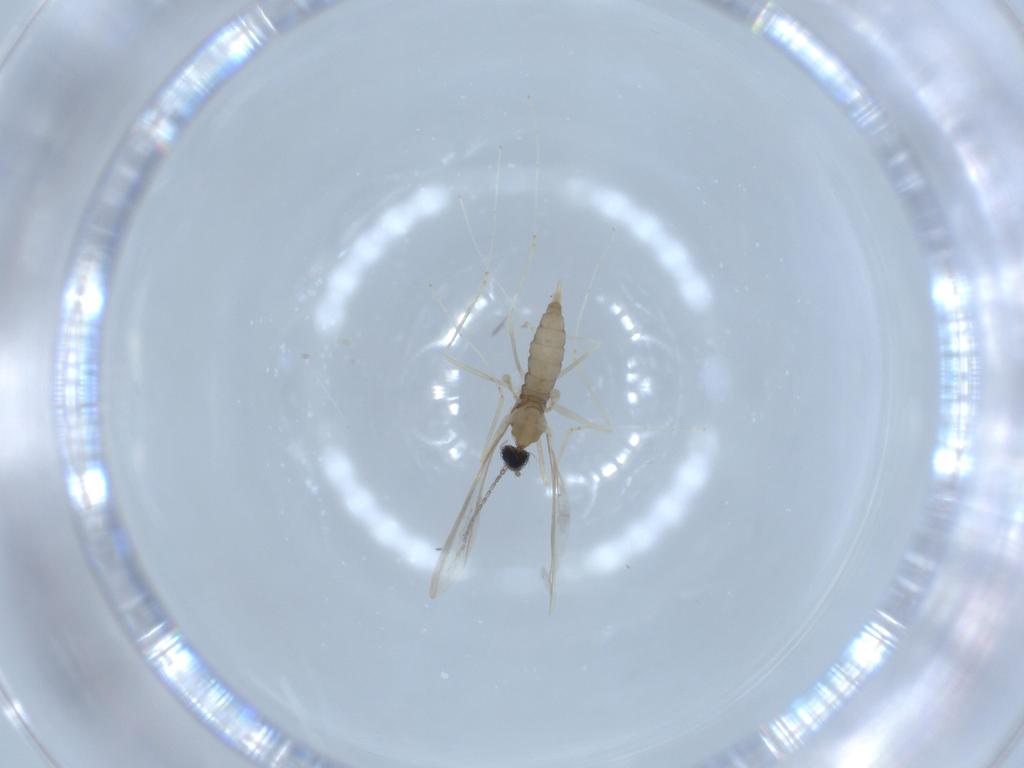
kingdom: Animalia
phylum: Arthropoda
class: Insecta
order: Diptera
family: Cecidomyiidae
